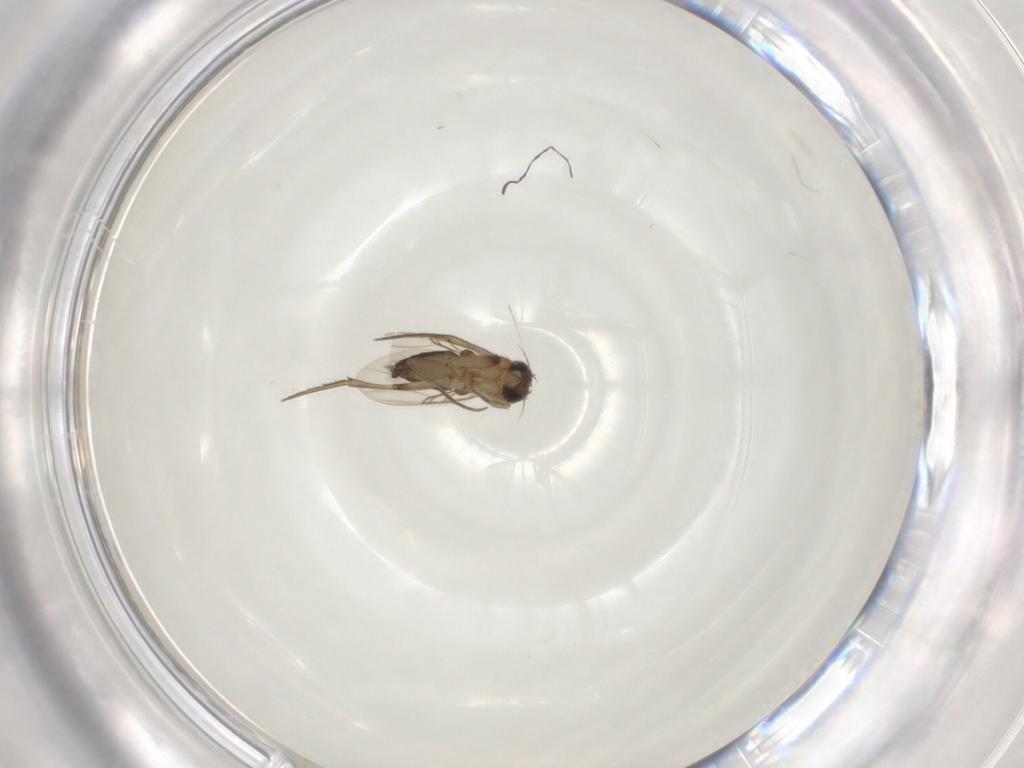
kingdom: Animalia
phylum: Arthropoda
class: Insecta
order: Diptera
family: Phoridae
